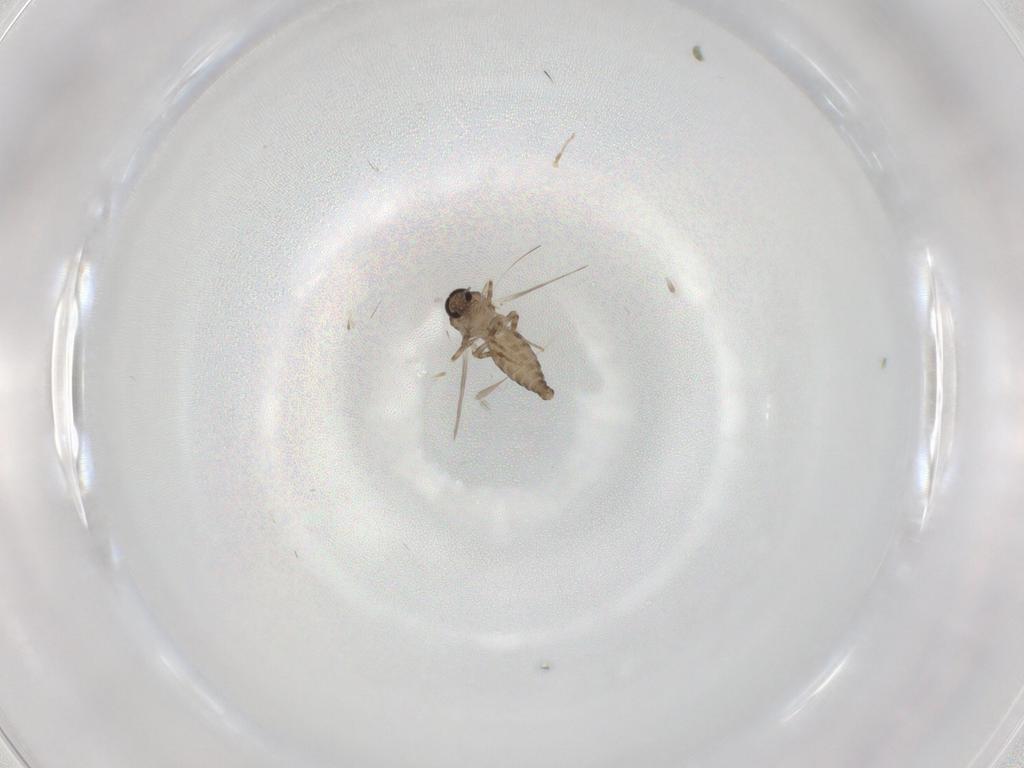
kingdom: Animalia
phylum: Arthropoda
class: Insecta
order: Diptera
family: Ceratopogonidae
